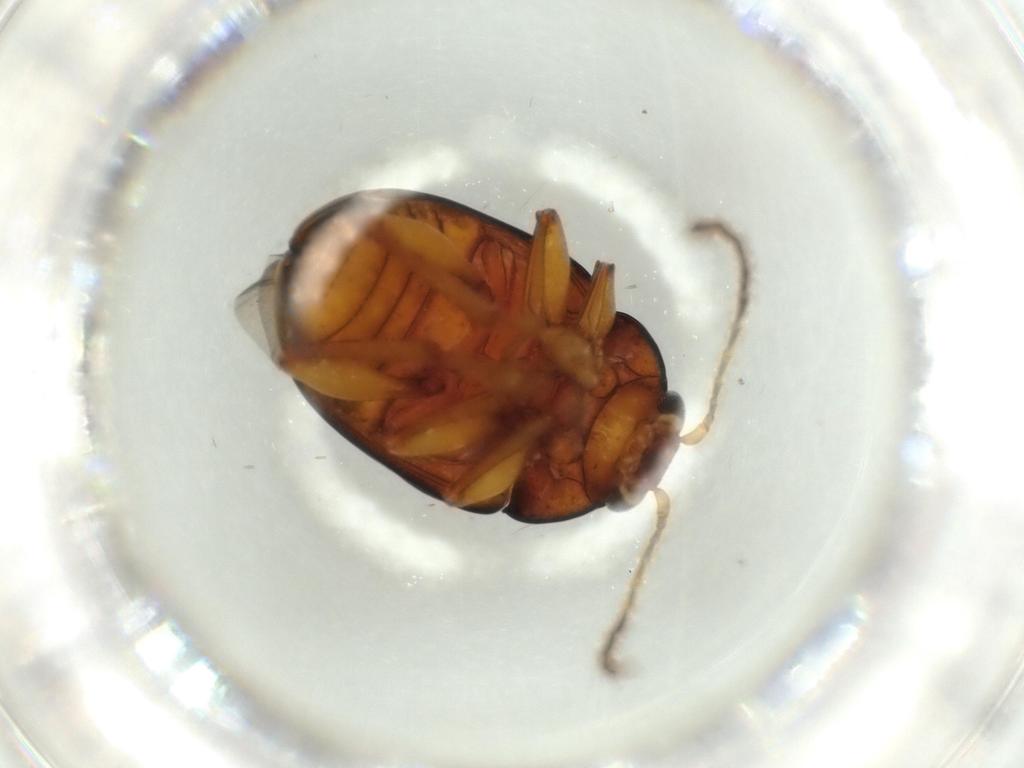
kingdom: Animalia
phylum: Arthropoda
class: Insecta
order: Coleoptera
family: Chrysomelidae
